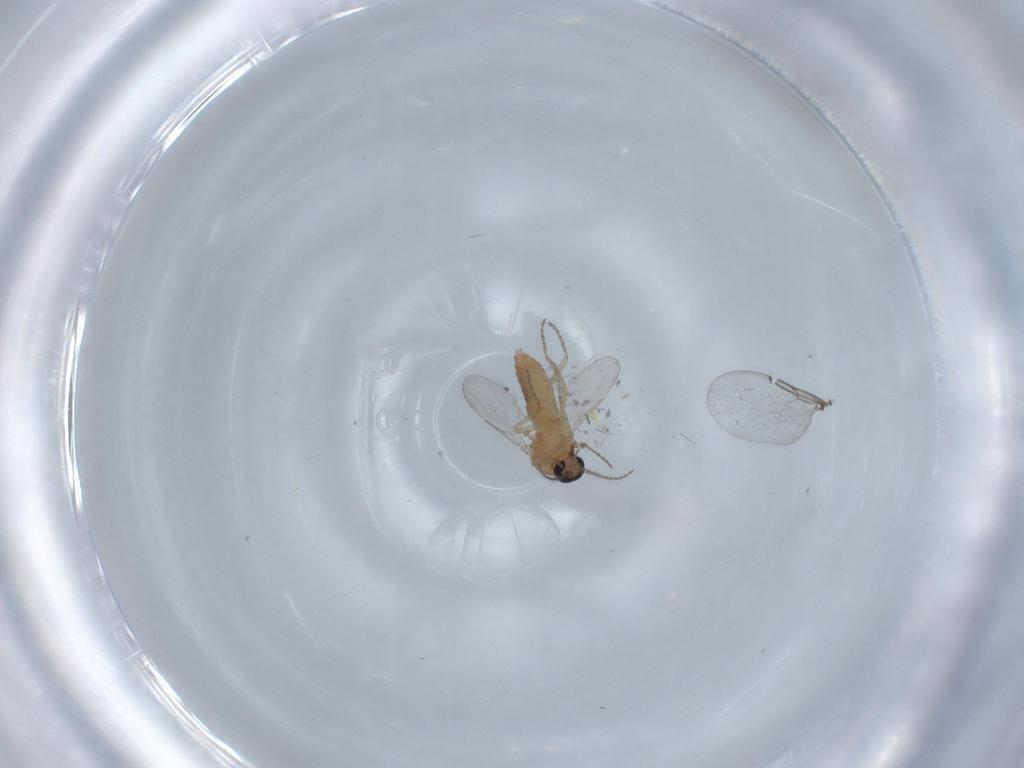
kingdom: Animalia
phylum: Arthropoda
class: Insecta
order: Diptera
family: Ceratopogonidae
